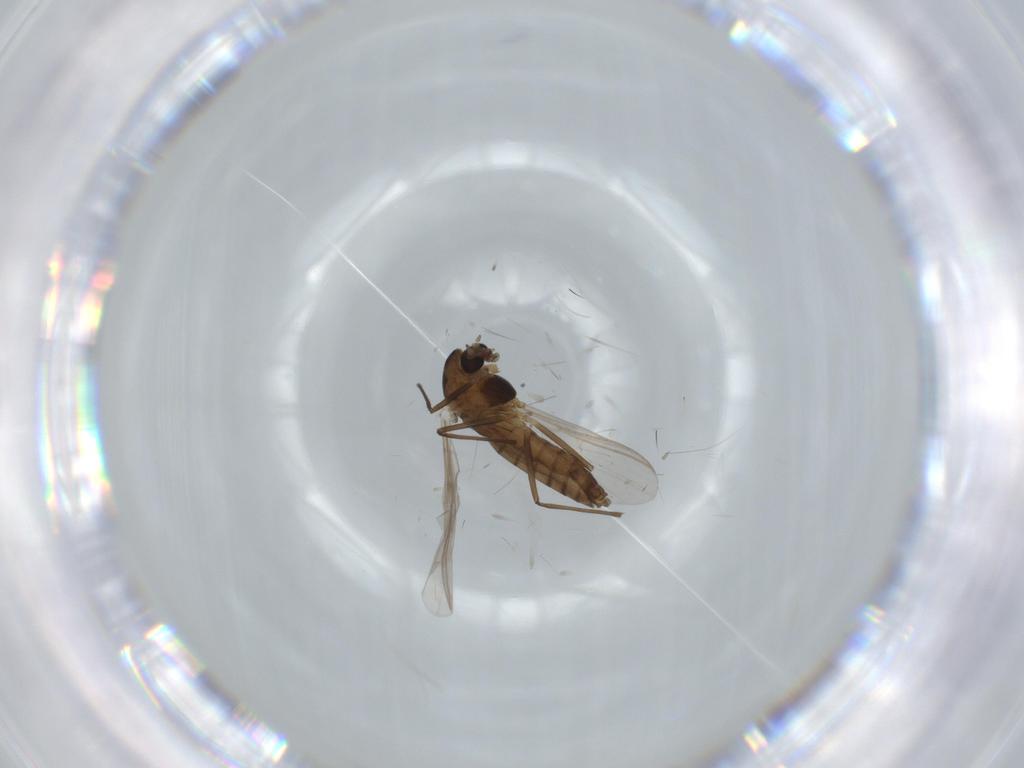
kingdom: Animalia
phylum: Arthropoda
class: Insecta
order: Diptera
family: Chironomidae
